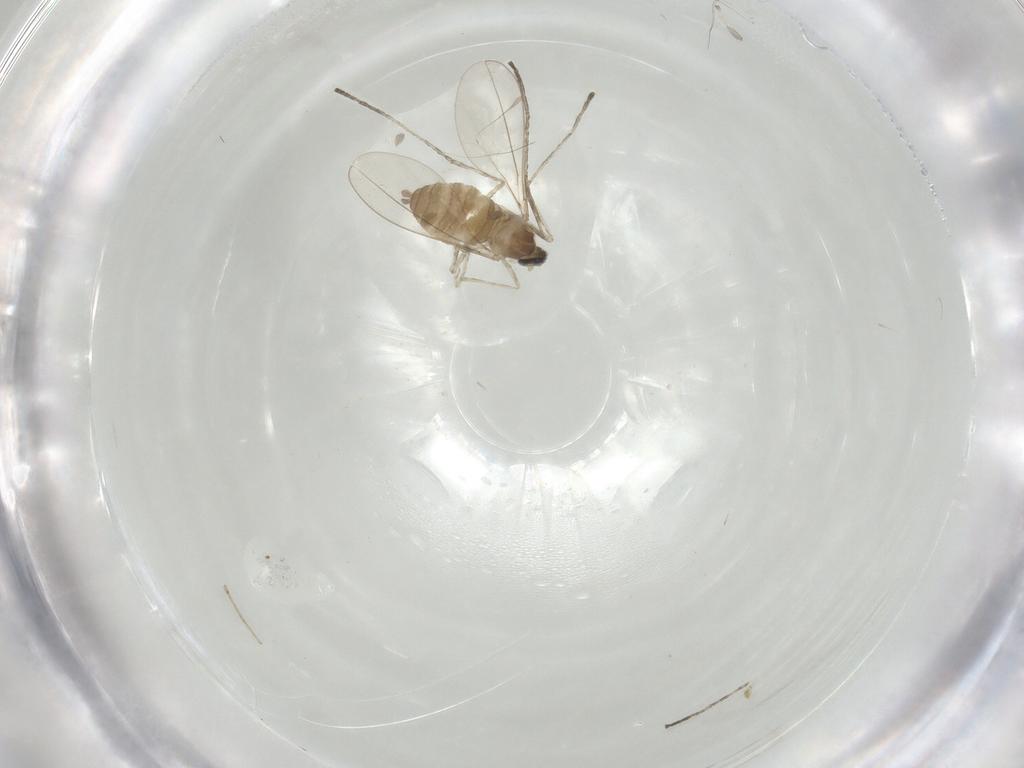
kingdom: Animalia
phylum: Arthropoda
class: Insecta
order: Diptera
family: Cecidomyiidae
